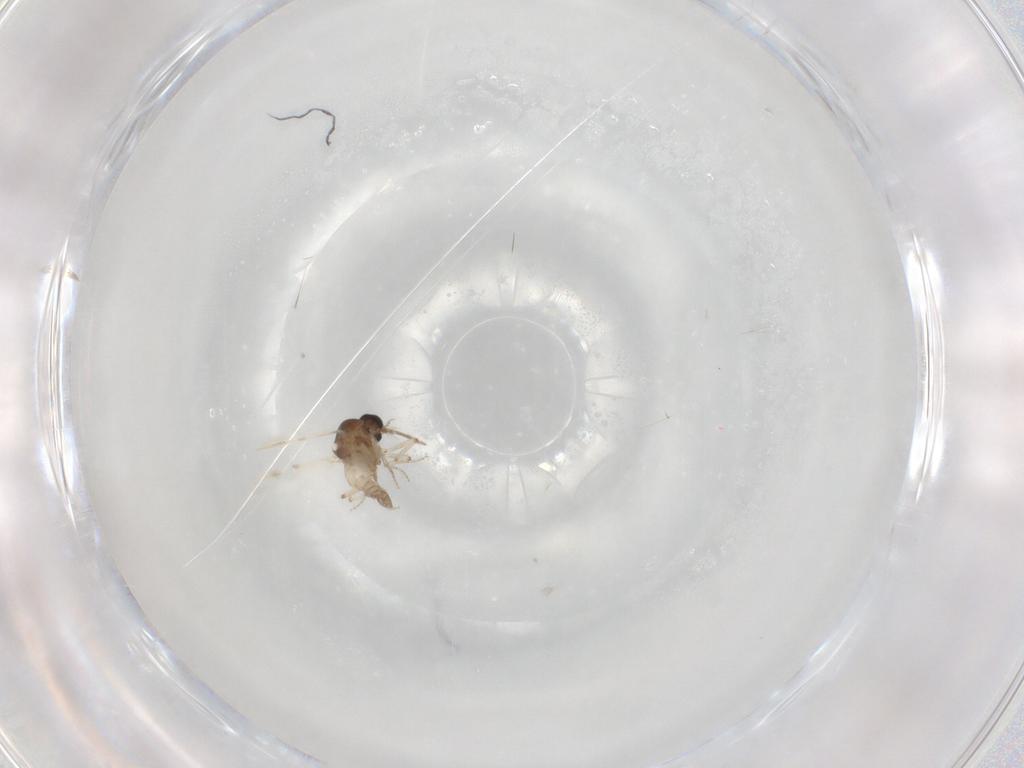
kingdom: Animalia
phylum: Arthropoda
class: Insecta
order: Diptera
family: Ceratopogonidae
